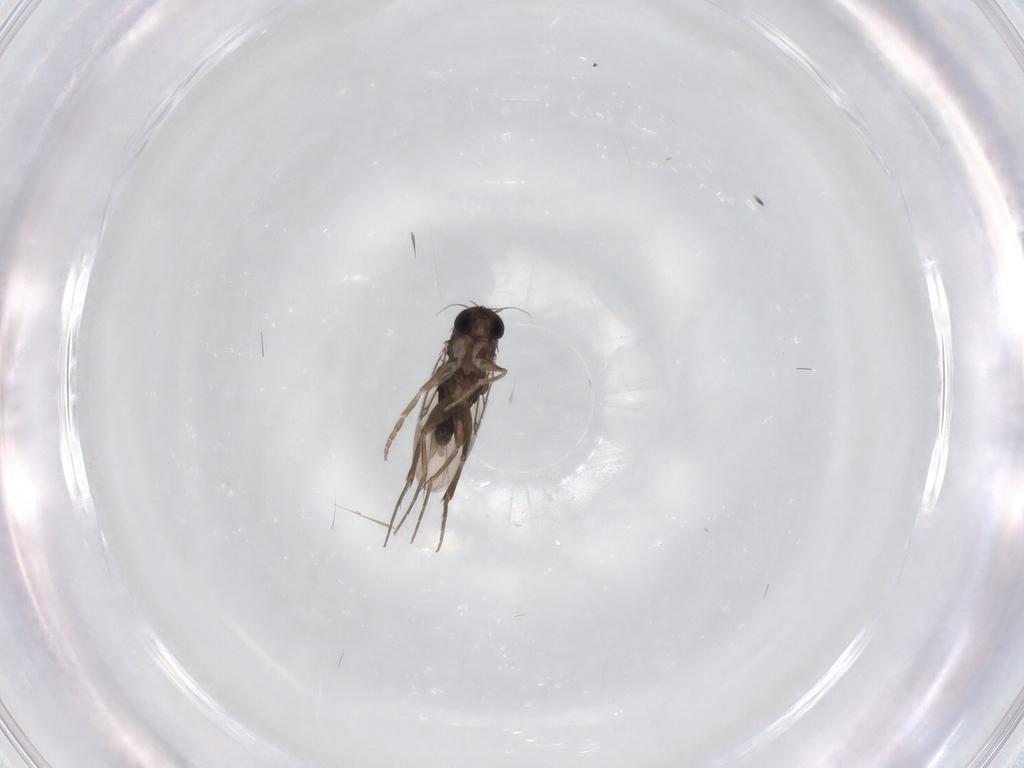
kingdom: Animalia
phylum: Arthropoda
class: Insecta
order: Diptera
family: Phoridae
